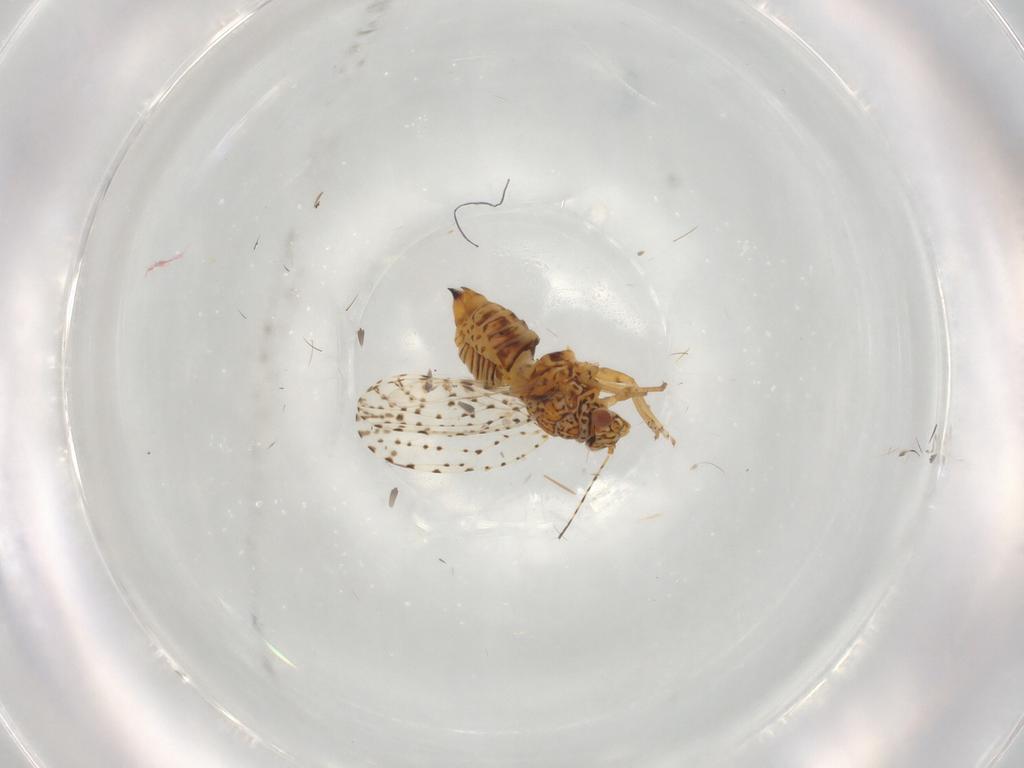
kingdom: Animalia
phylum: Arthropoda
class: Insecta
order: Hemiptera
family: Psyllidae
